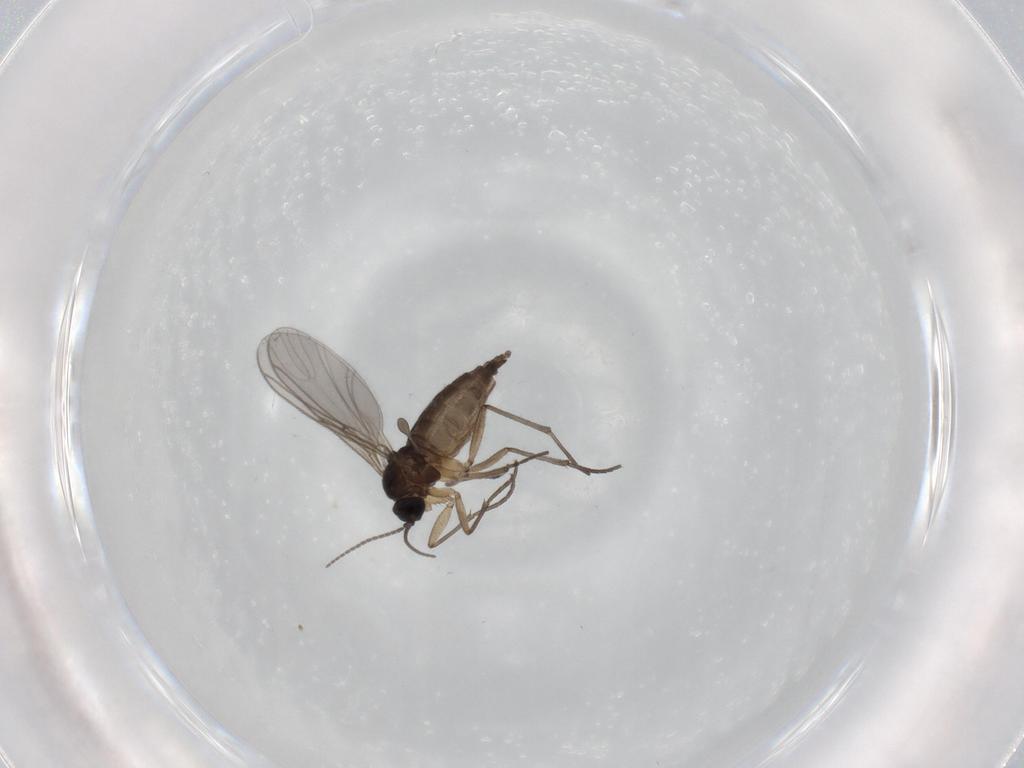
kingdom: Animalia
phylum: Arthropoda
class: Insecta
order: Diptera
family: Sciaridae
